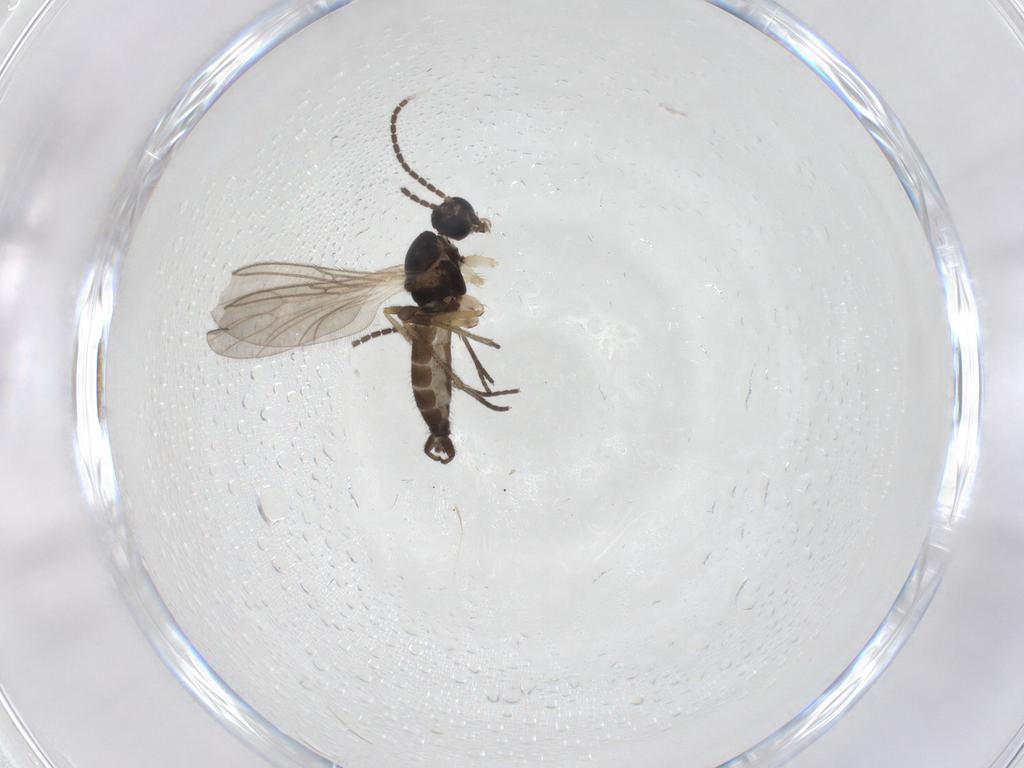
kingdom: Animalia
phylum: Arthropoda
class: Insecta
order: Diptera
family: Sciaridae
